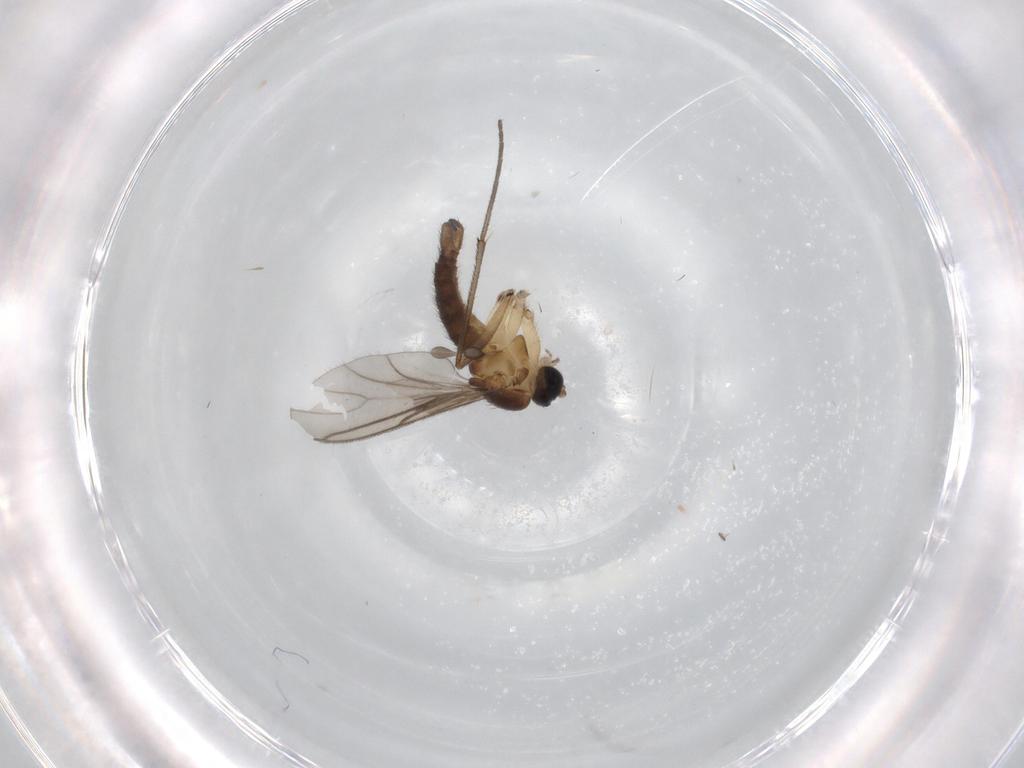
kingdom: Animalia
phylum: Arthropoda
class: Insecta
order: Diptera
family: Sciaridae
